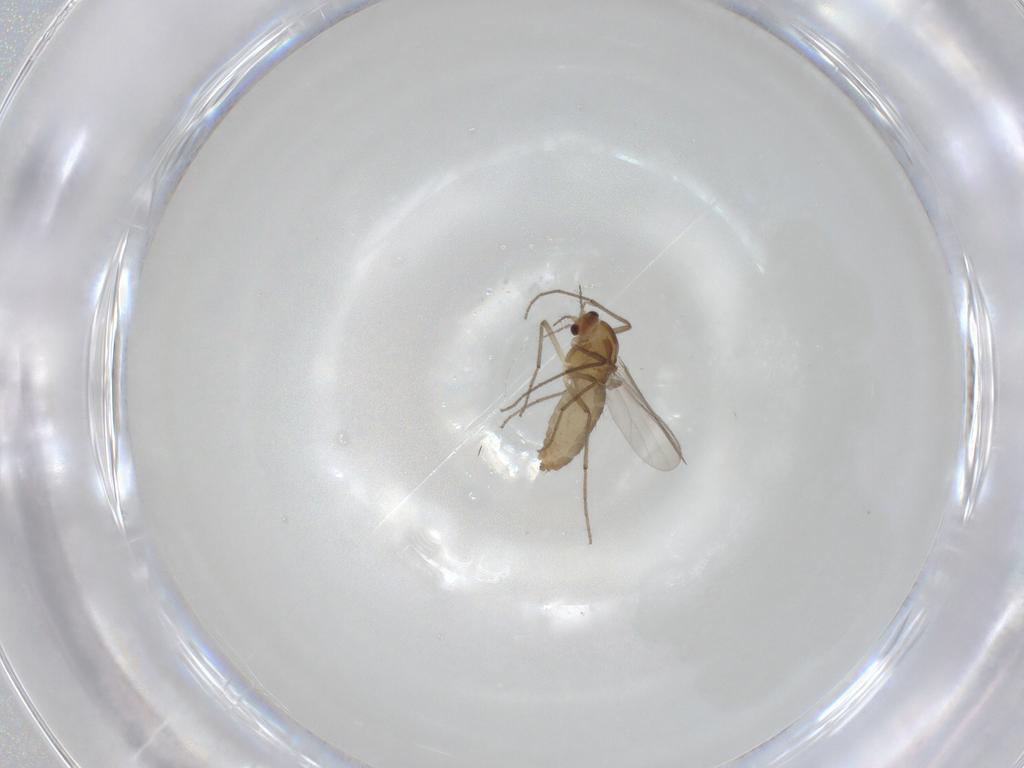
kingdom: Animalia
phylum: Arthropoda
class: Insecta
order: Diptera
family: Chironomidae
